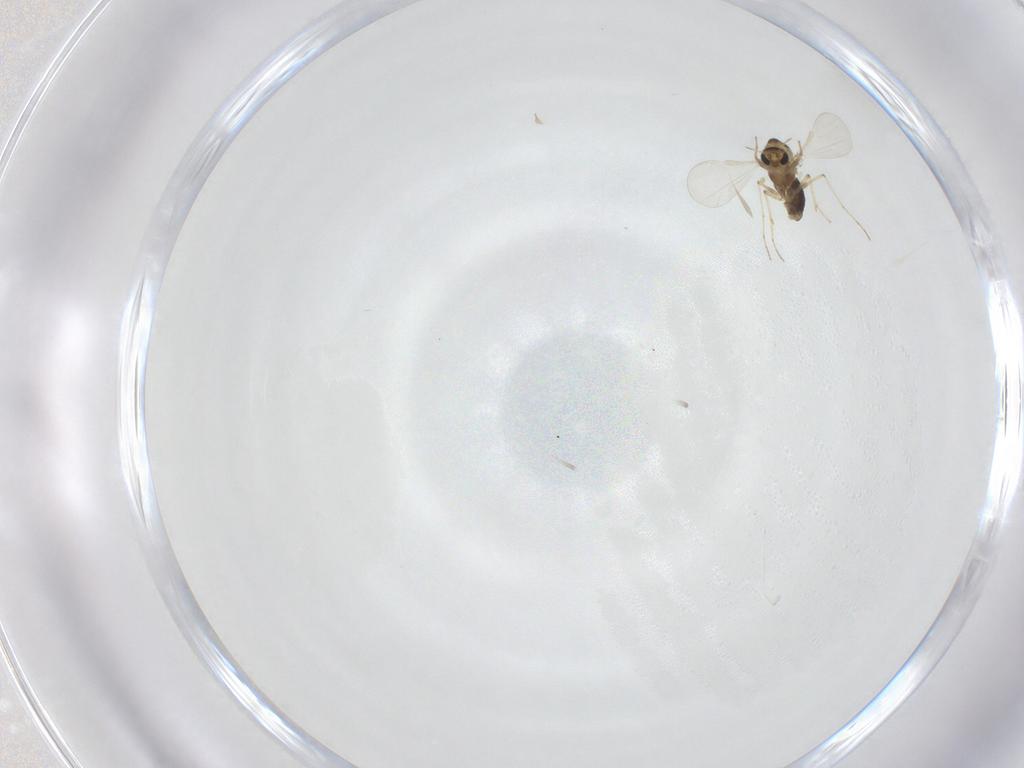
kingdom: Animalia
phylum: Arthropoda
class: Insecta
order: Diptera
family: Chironomidae
